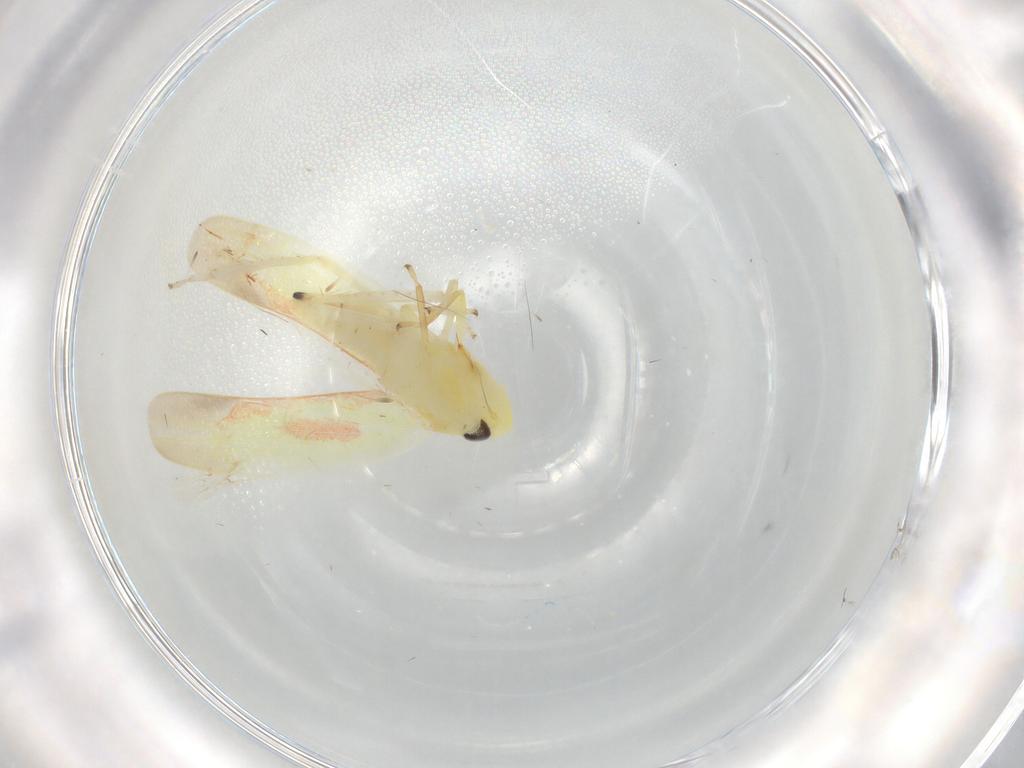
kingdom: Animalia
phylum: Arthropoda
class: Insecta
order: Hemiptera
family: Cicadellidae
